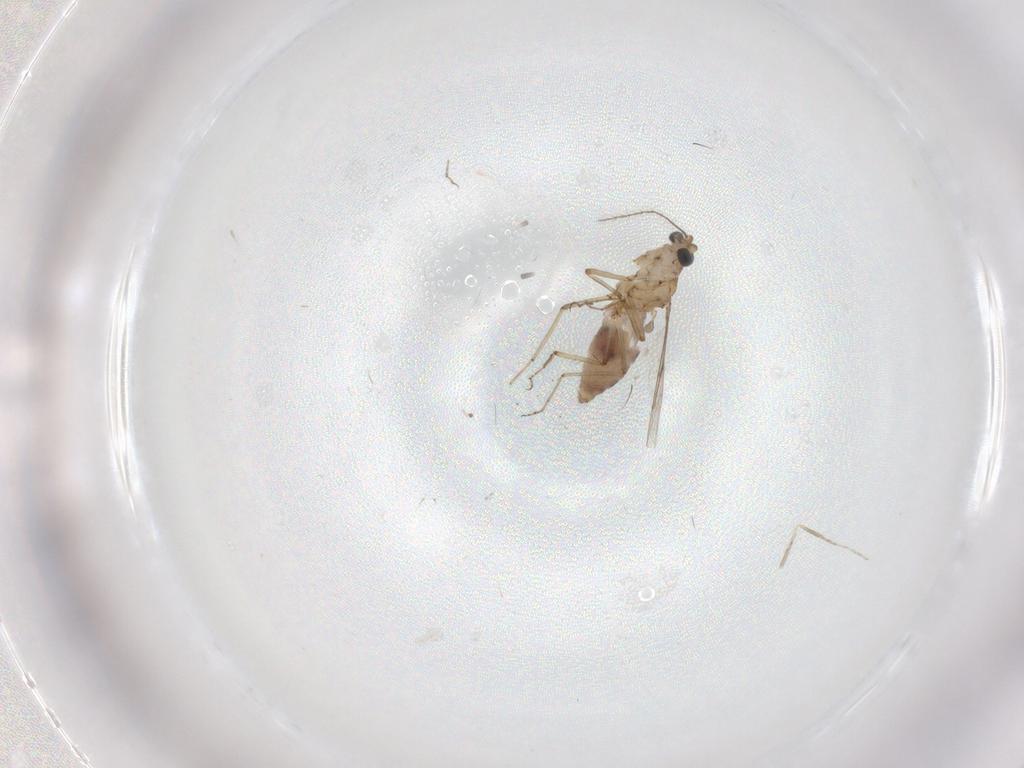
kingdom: Animalia
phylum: Arthropoda
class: Insecta
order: Diptera
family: Ceratopogonidae
